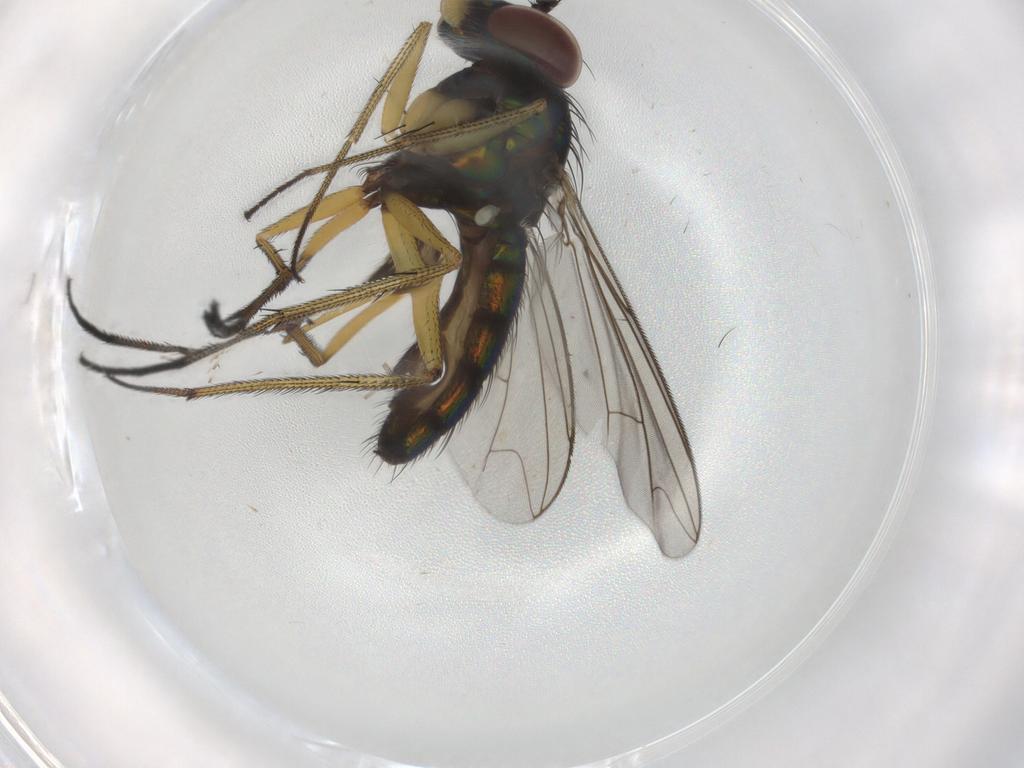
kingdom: Animalia
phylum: Arthropoda
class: Insecta
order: Diptera
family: Dolichopodidae
